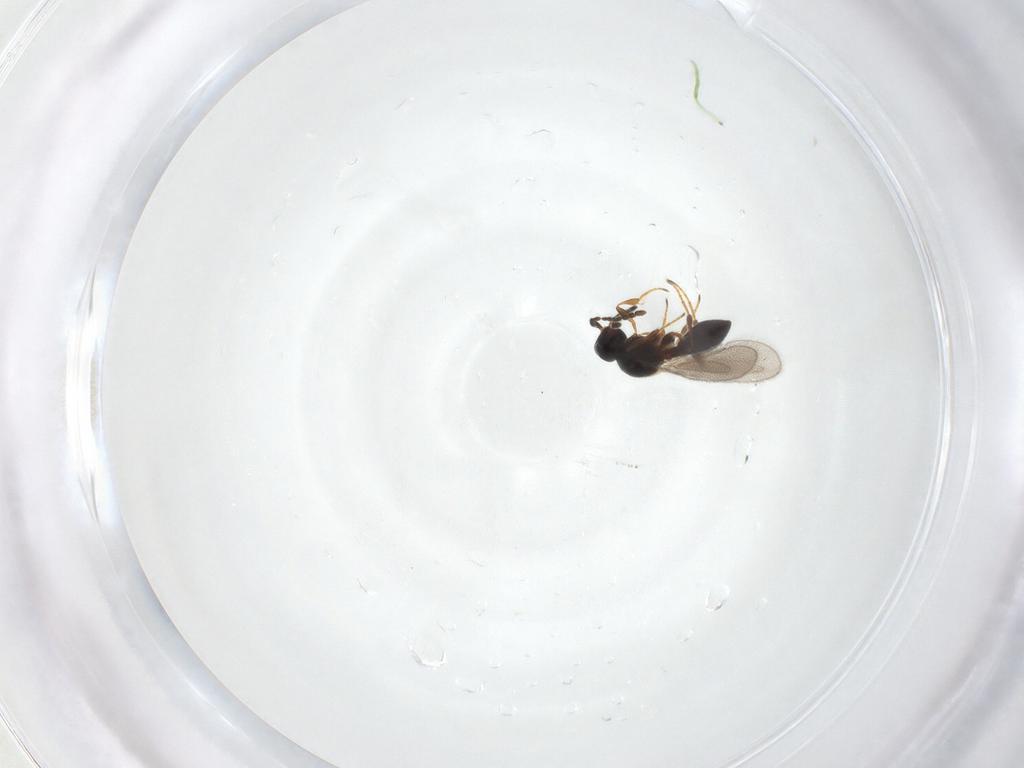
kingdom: Animalia
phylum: Arthropoda
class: Insecta
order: Hymenoptera
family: Platygastridae
